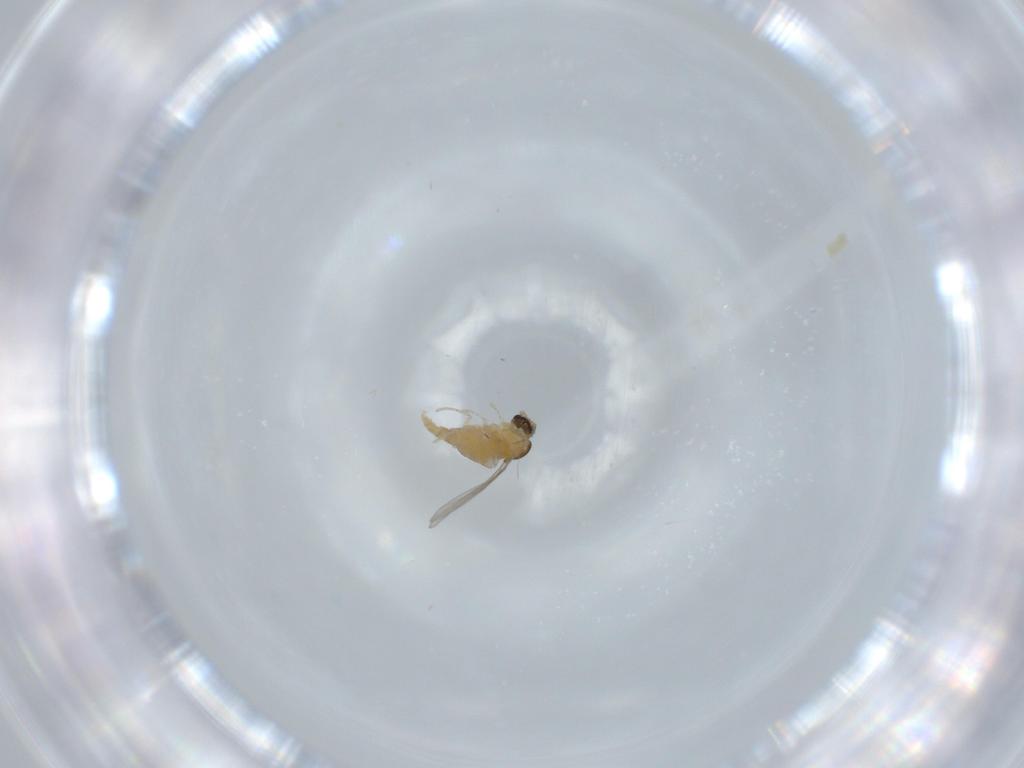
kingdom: Animalia
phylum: Arthropoda
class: Insecta
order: Diptera
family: Cecidomyiidae
